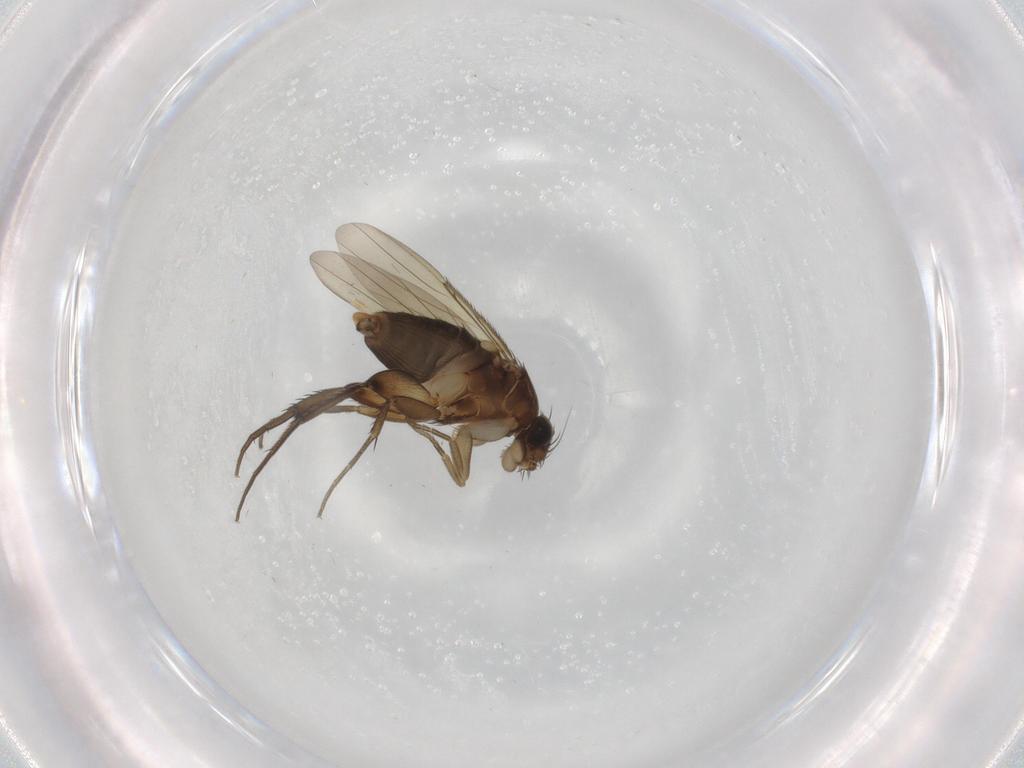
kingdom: Animalia
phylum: Arthropoda
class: Insecta
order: Diptera
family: Phoridae
